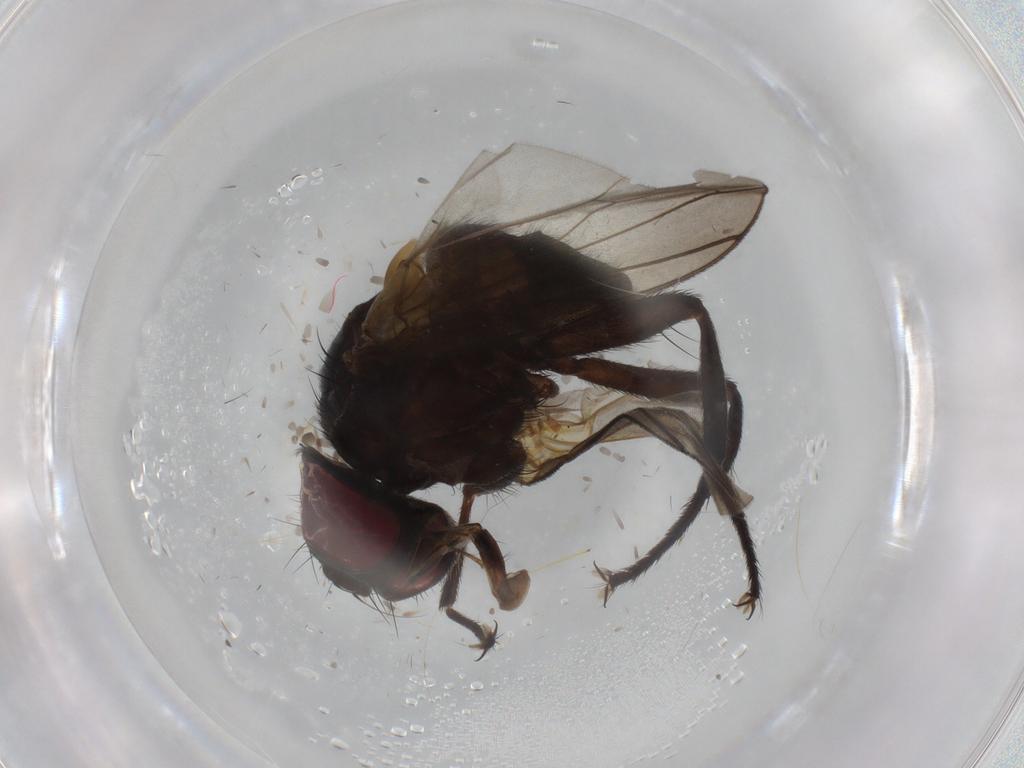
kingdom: Animalia
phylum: Arthropoda
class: Insecta
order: Diptera
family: Tachinidae
